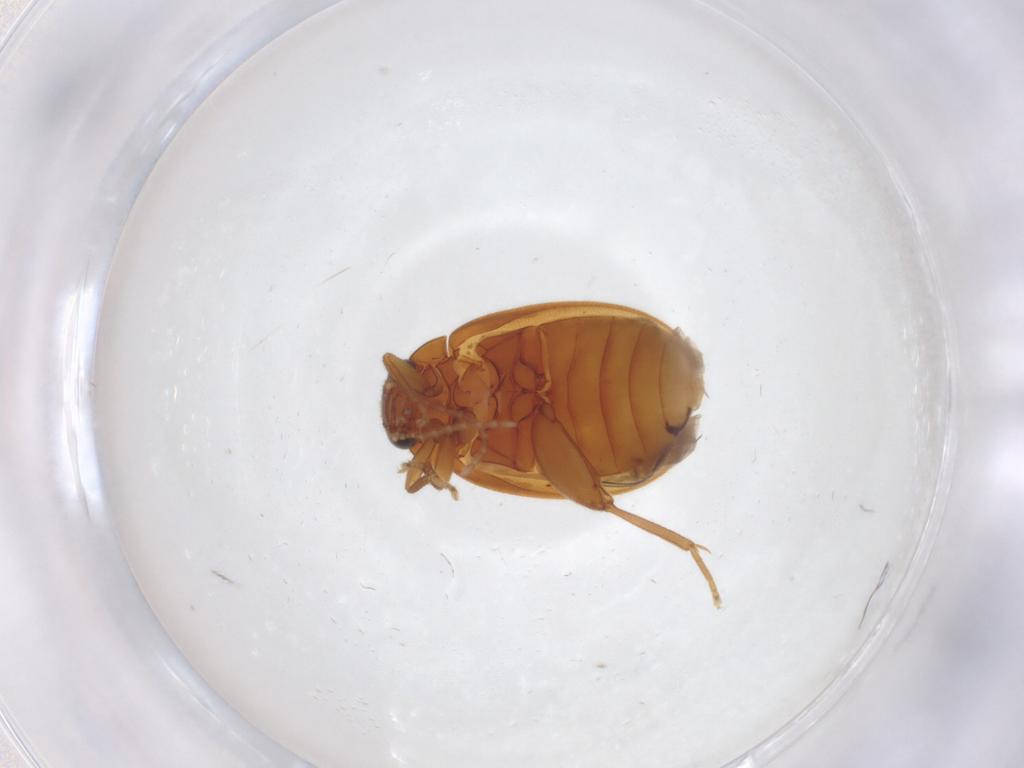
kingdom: Animalia
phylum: Arthropoda
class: Insecta
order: Coleoptera
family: Scirtidae
